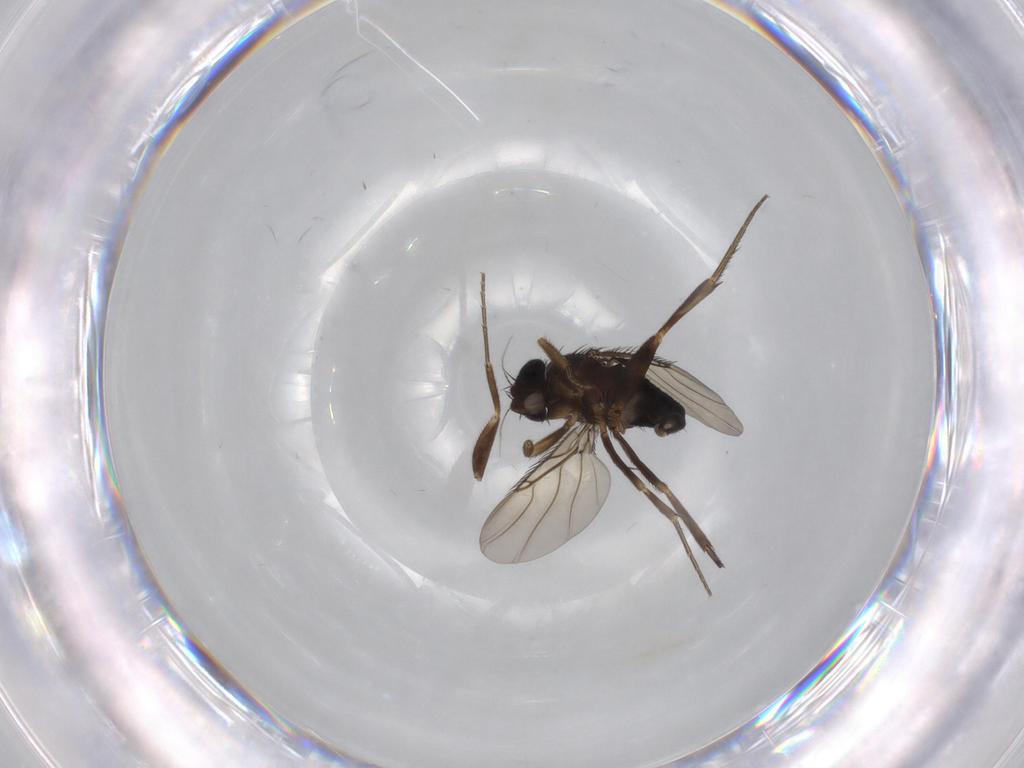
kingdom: Animalia
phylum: Arthropoda
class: Insecta
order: Diptera
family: Phoridae
